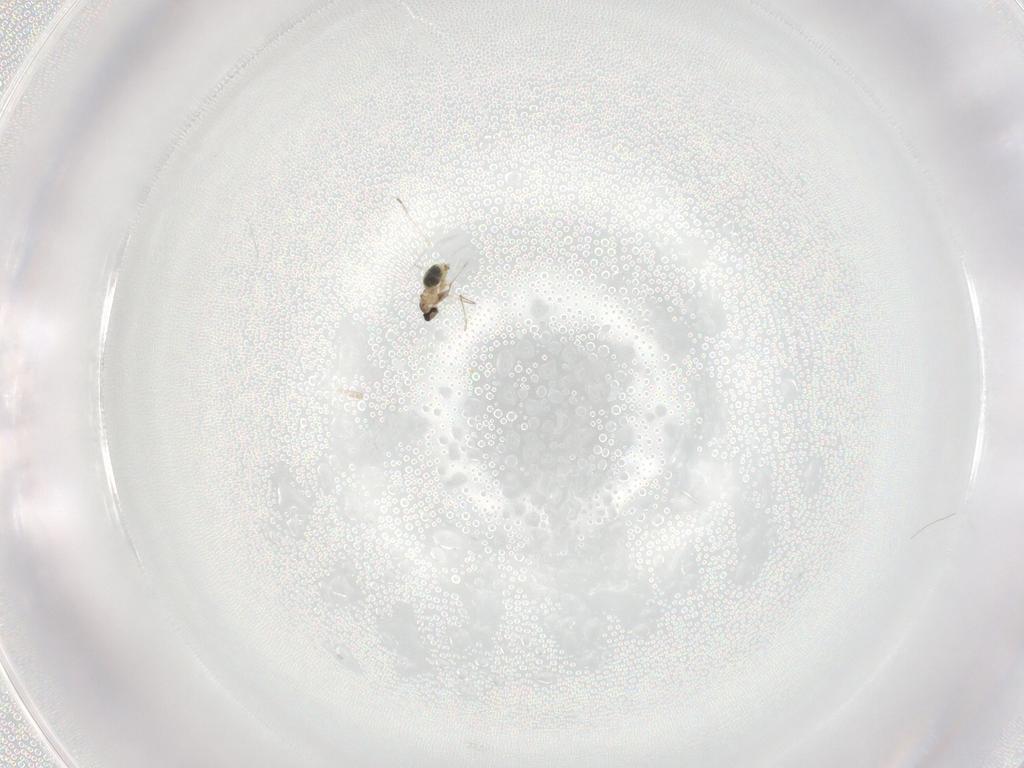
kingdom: Animalia
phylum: Arthropoda
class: Insecta
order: Diptera
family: Cecidomyiidae
